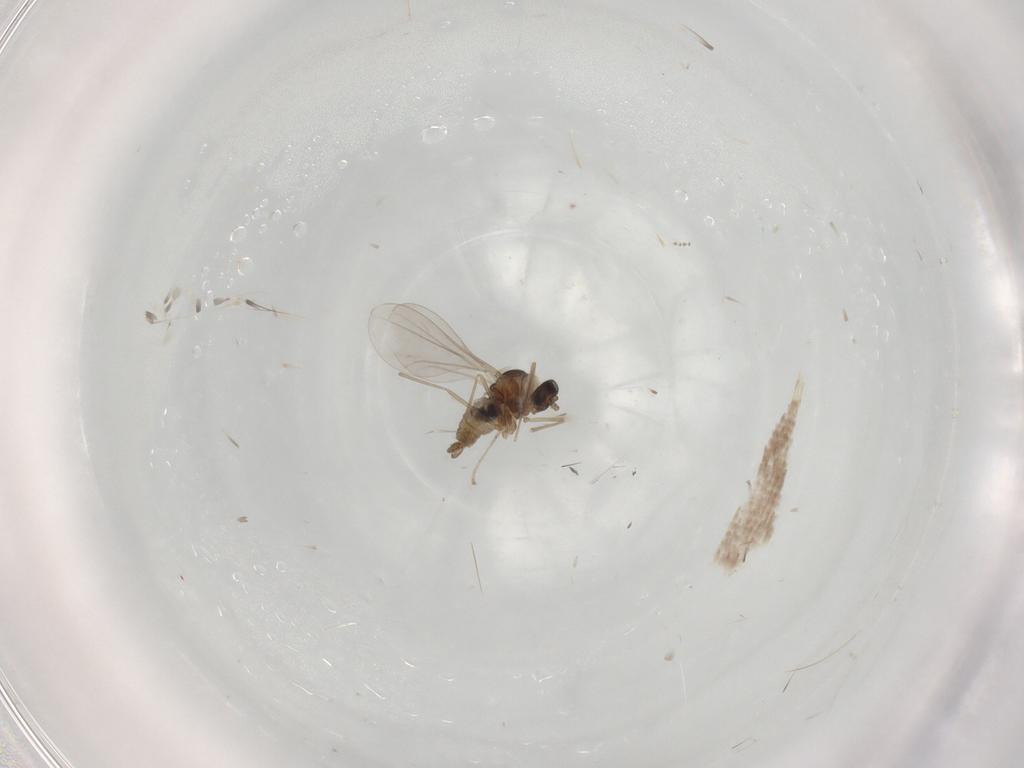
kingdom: Animalia
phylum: Arthropoda
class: Insecta
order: Diptera
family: Cecidomyiidae
